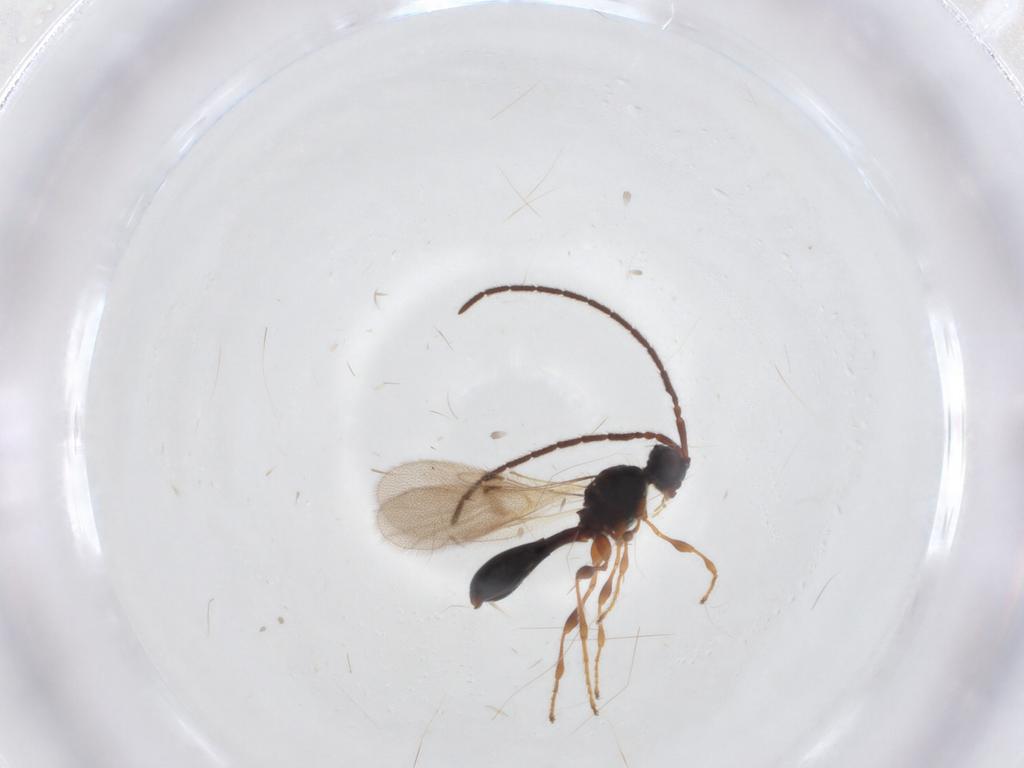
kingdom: Animalia
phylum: Arthropoda
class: Insecta
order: Hymenoptera
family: Diapriidae
